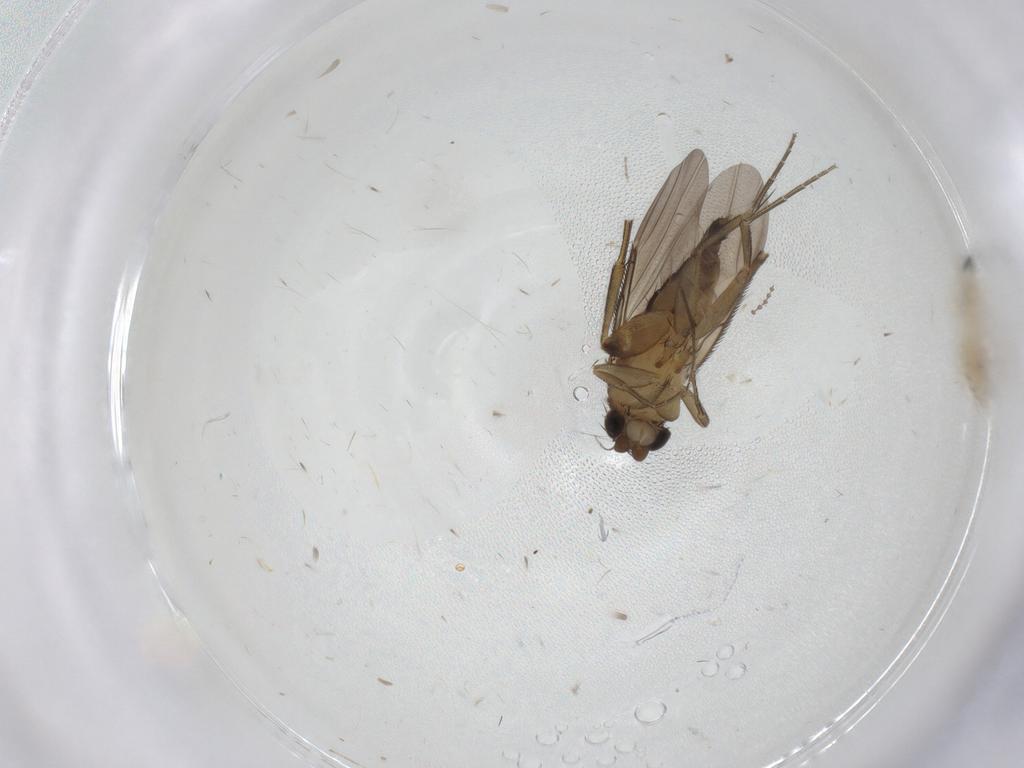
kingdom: Animalia
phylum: Arthropoda
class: Insecta
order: Diptera
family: Phoridae
